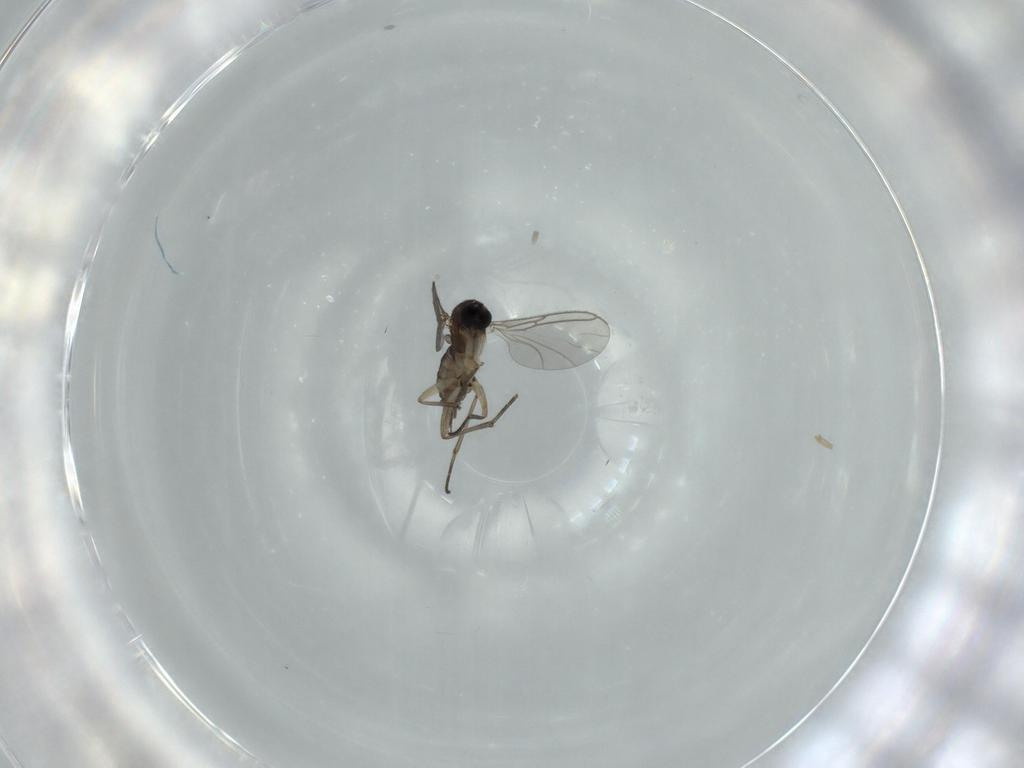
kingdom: Animalia
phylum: Arthropoda
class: Insecta
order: Diptera
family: Sciaridae
